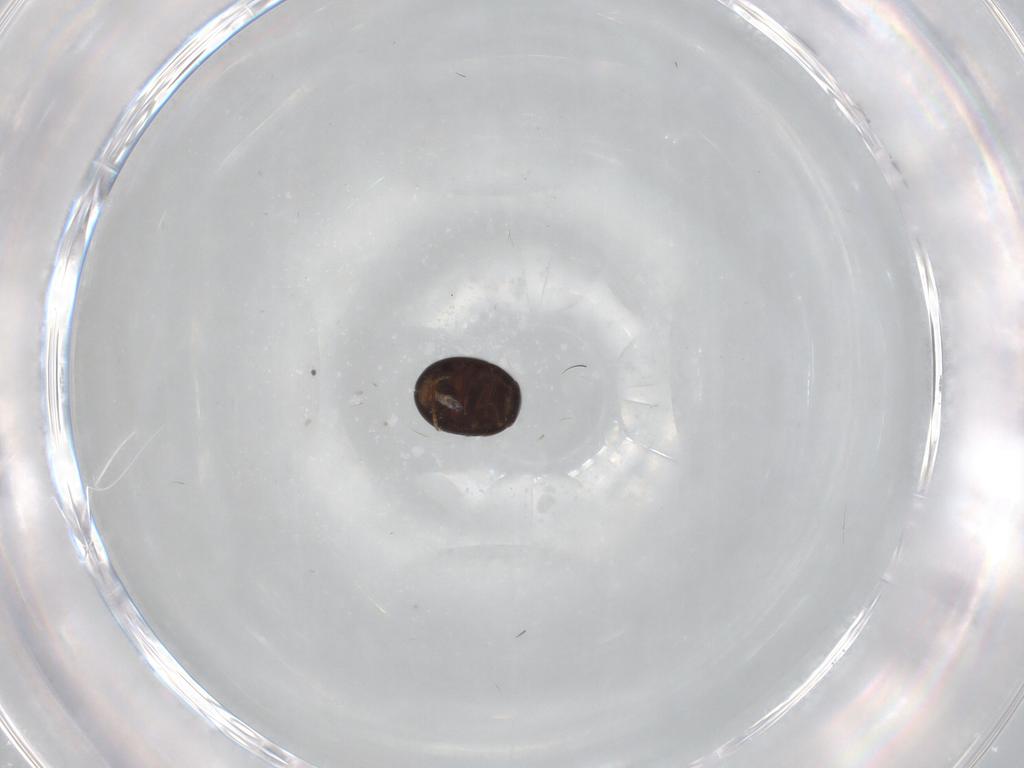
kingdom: Animalia
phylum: Arthropoda
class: Insecta
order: Coleoptera
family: Leiodidae
